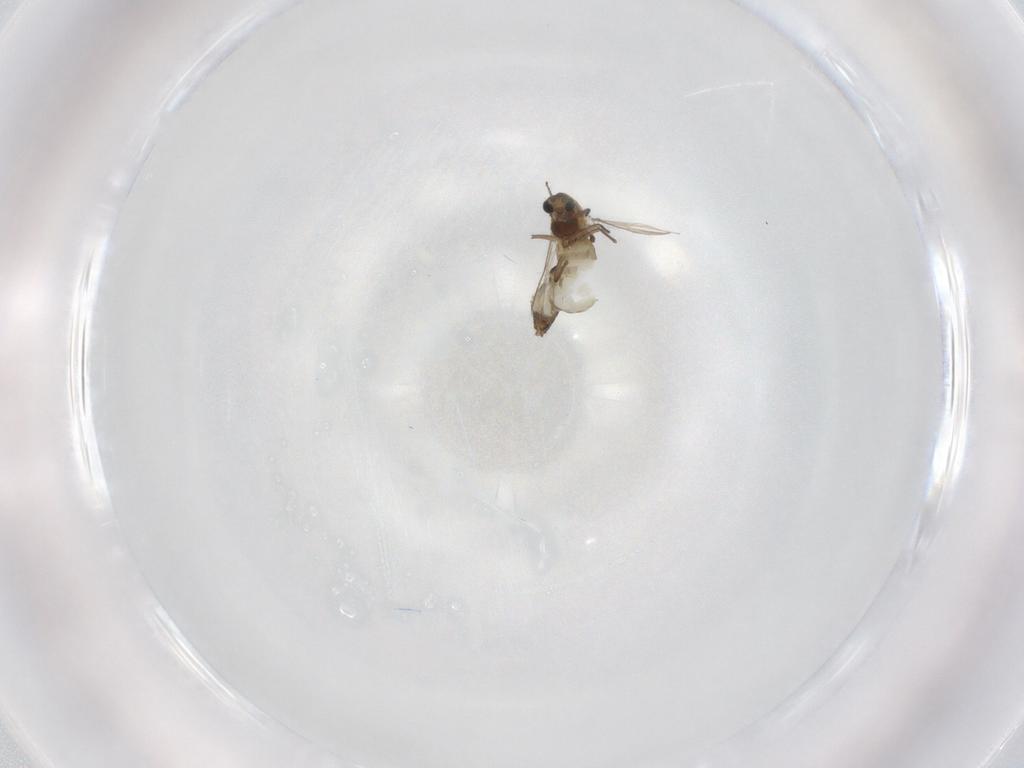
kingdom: Animalia
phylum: Arthropoda
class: Insecta
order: Diptera
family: Chironomidae
